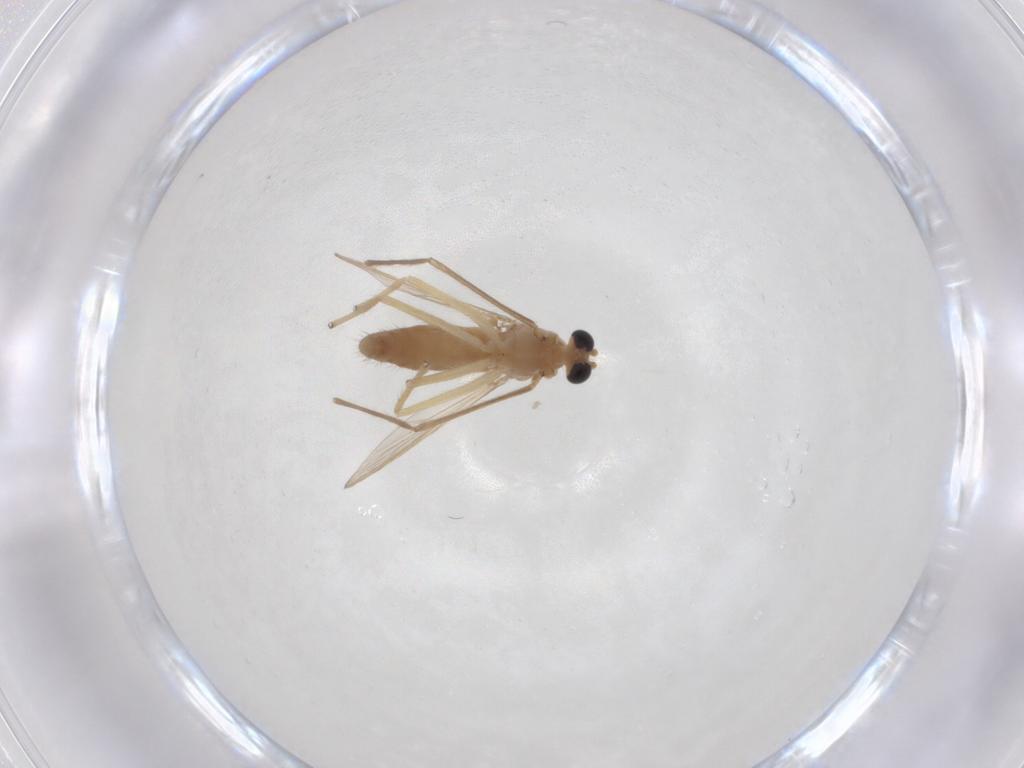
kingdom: Animalia
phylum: Arthropoda
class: Insecta
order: Diptera
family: Chironomidae
